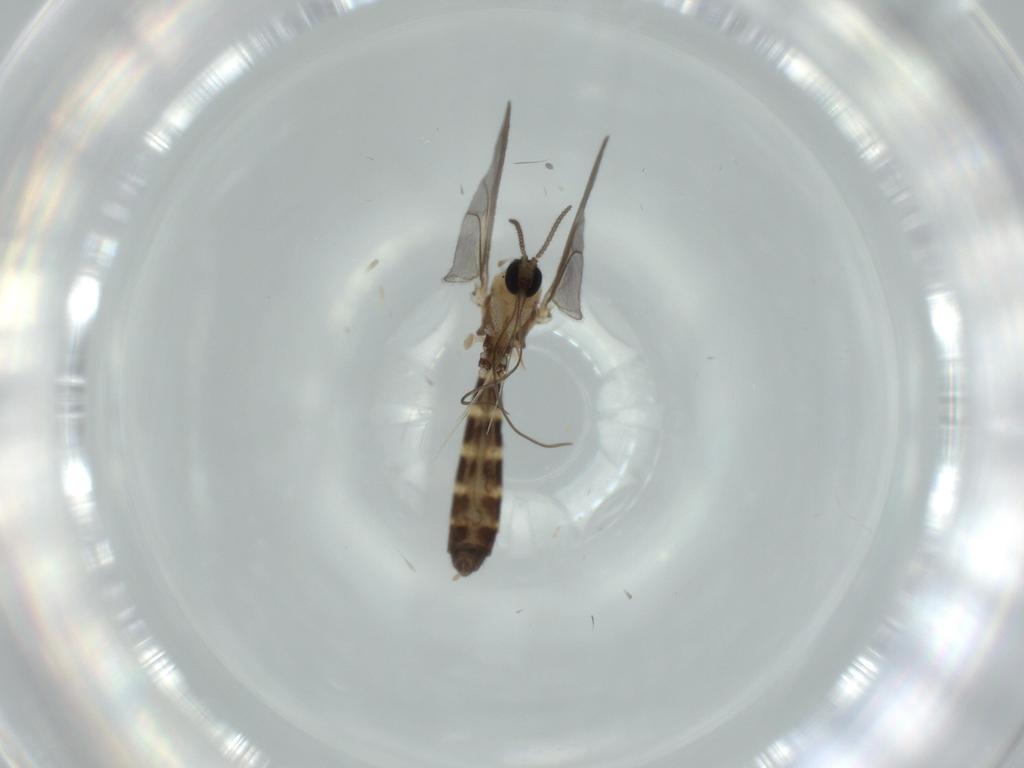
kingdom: Animalia
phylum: Arthropoda
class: Insecta
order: Diptera
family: Keroplatidae
